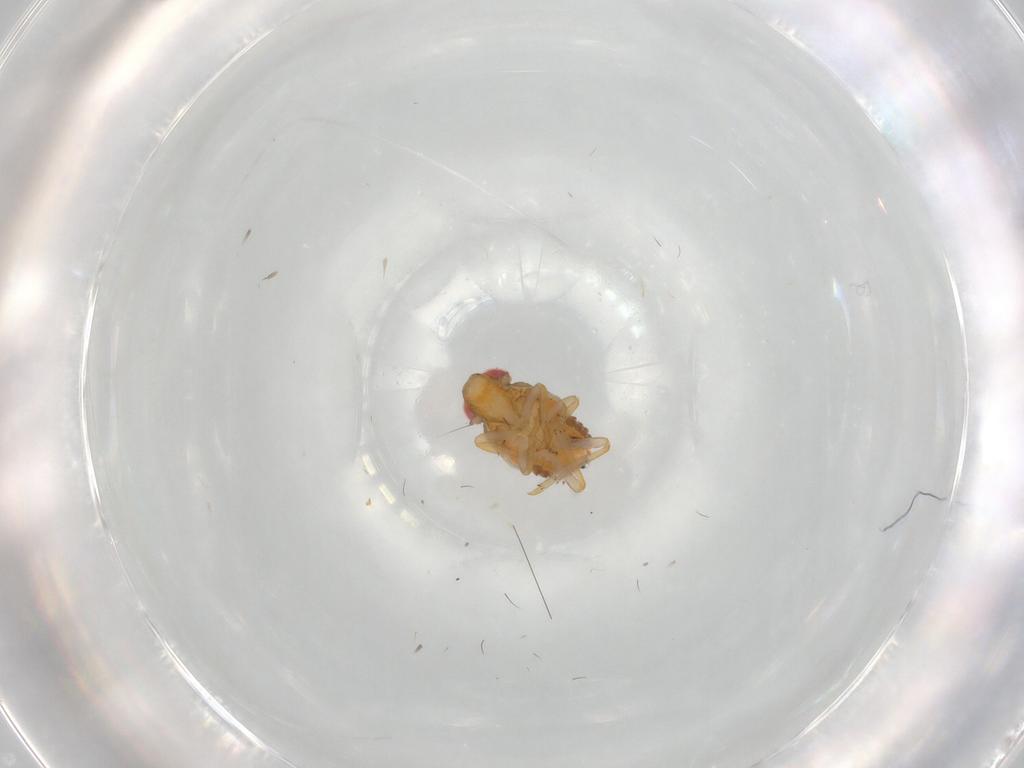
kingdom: Animalia
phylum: Arthropoda
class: Insecta
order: Hemiptera
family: Issidae
